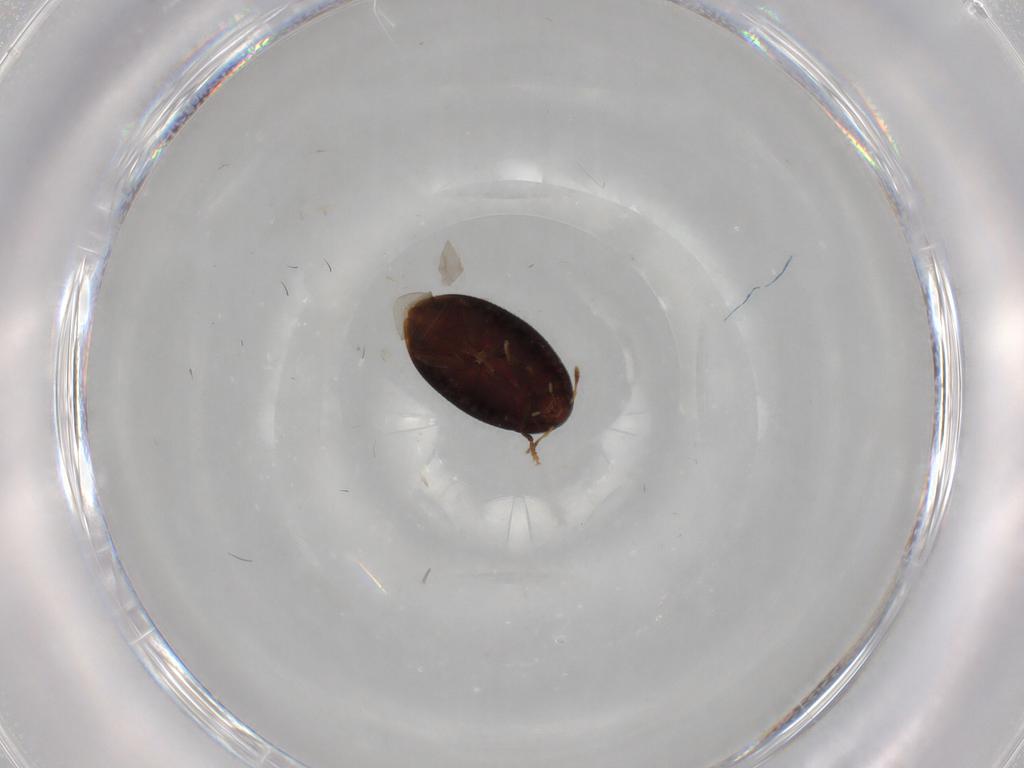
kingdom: Animalia
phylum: Arthropoda
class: Insecta
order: Coleoptera
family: Melandryidae
